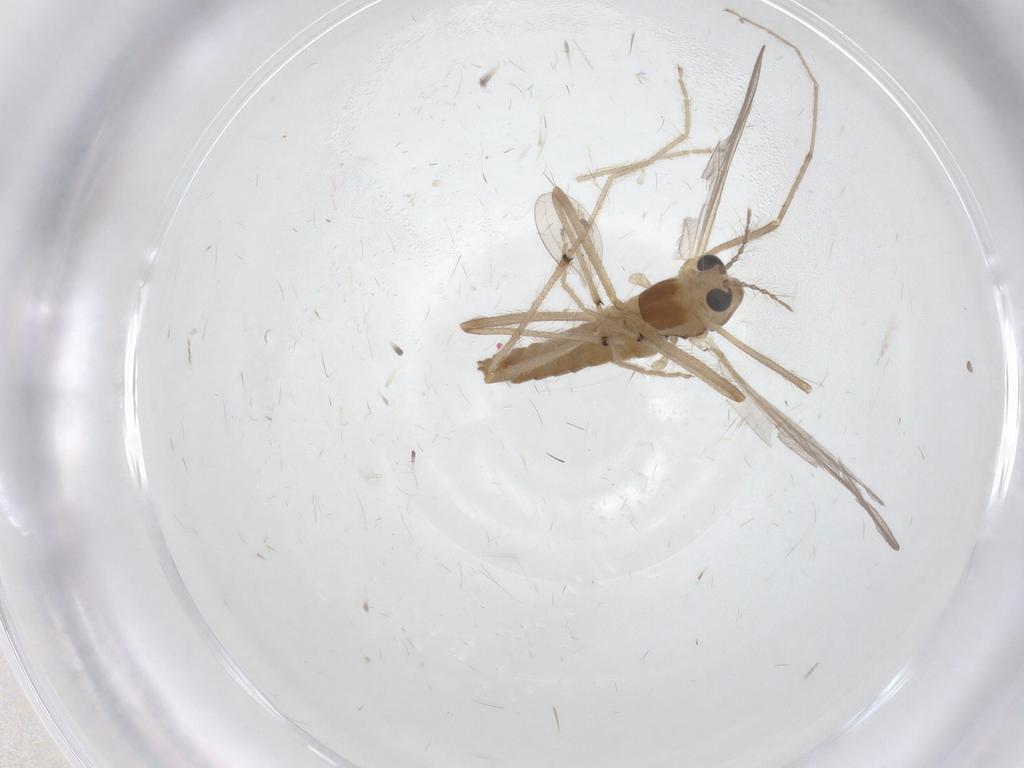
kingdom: Animalia
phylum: Arthropoda
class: Insecta
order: Diptera
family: Chironomidae
